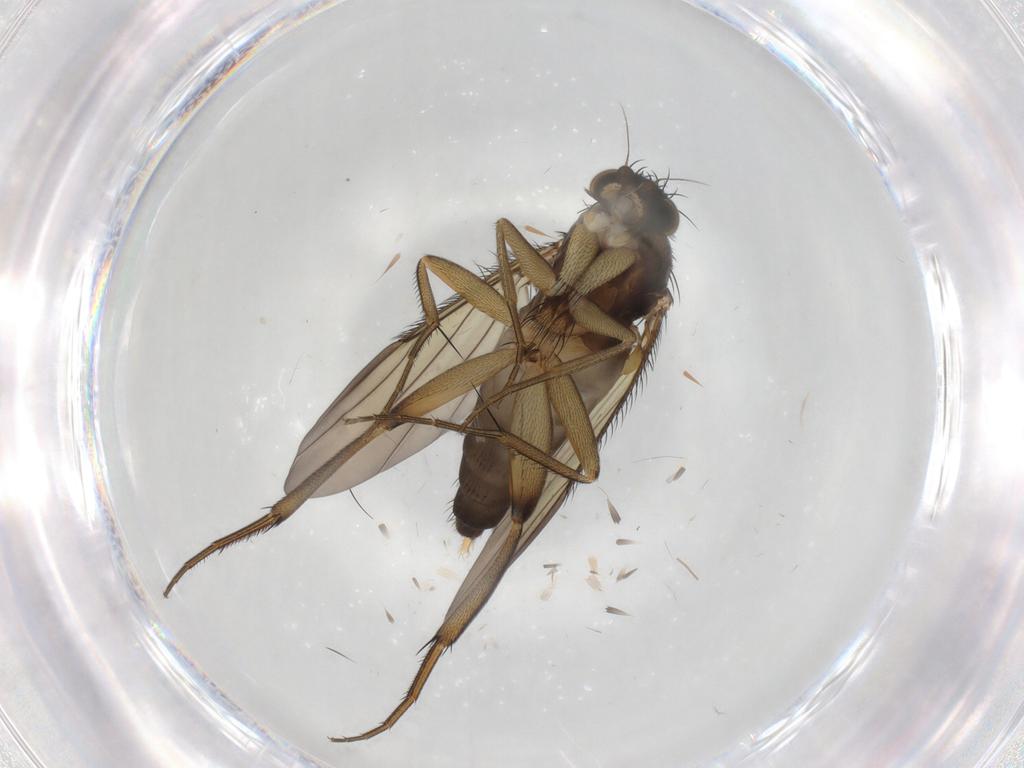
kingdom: Animalia
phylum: Arthropoda
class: Insecta
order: Diptera
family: Phoridae
